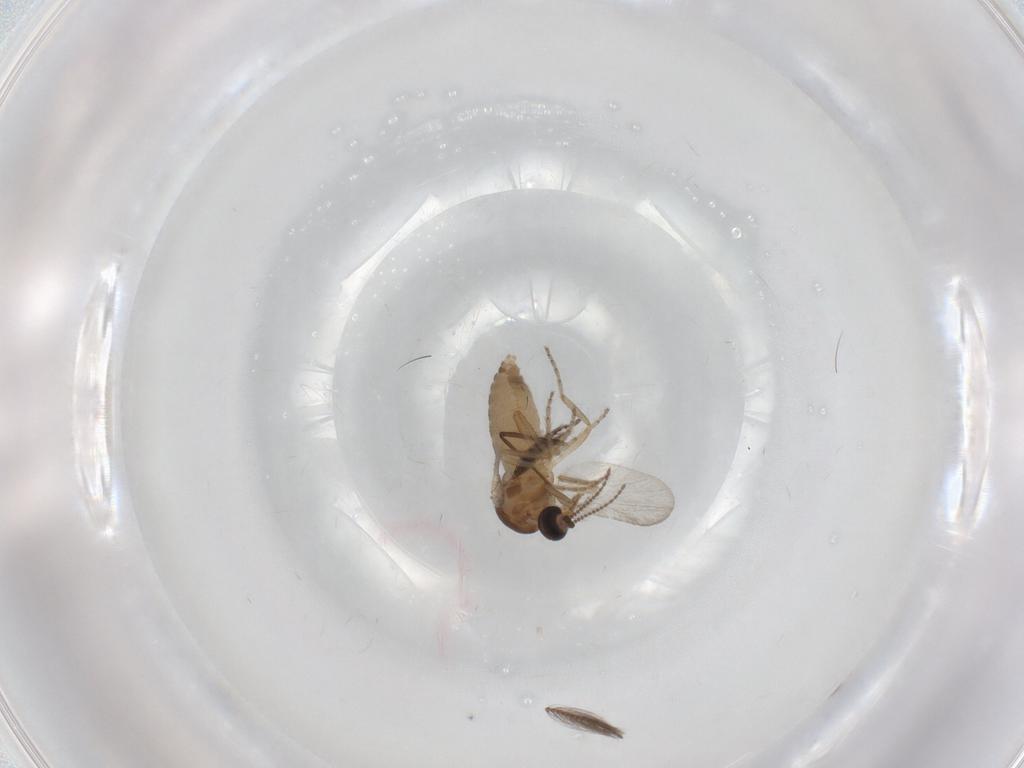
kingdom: Animalia
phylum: Arthropoda
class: Insecta
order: Diptera
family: Ceratopogonidae
